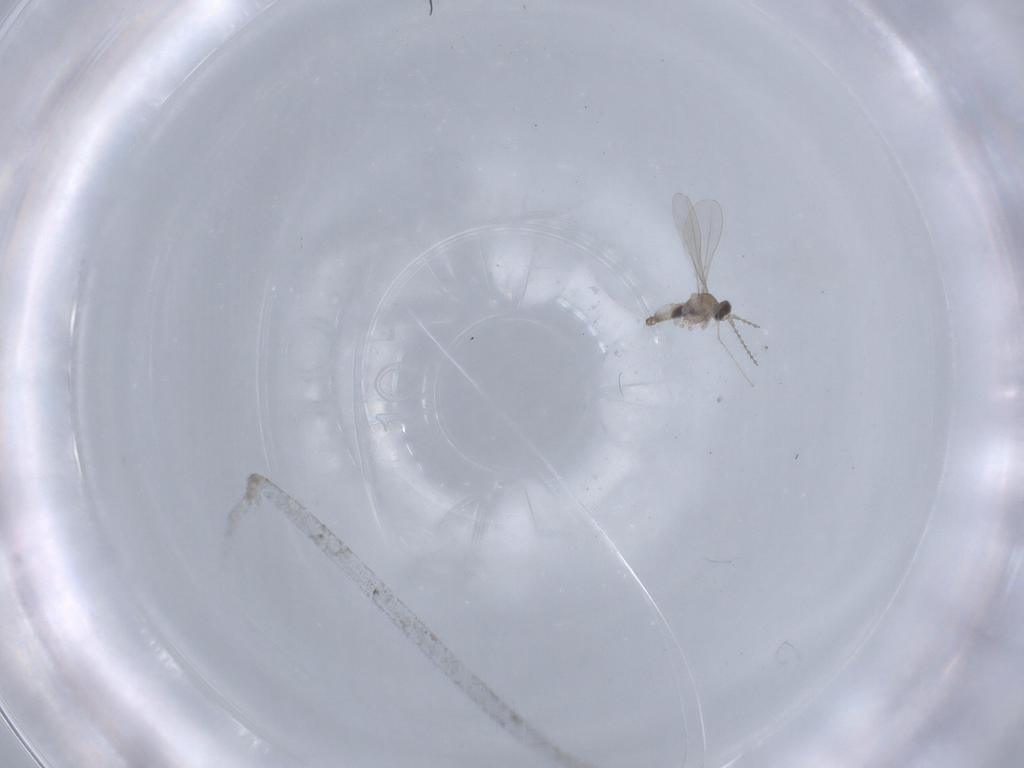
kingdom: Animalia
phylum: Arthropoda
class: Insecta
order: Diptera
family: Cecidomyiidae
